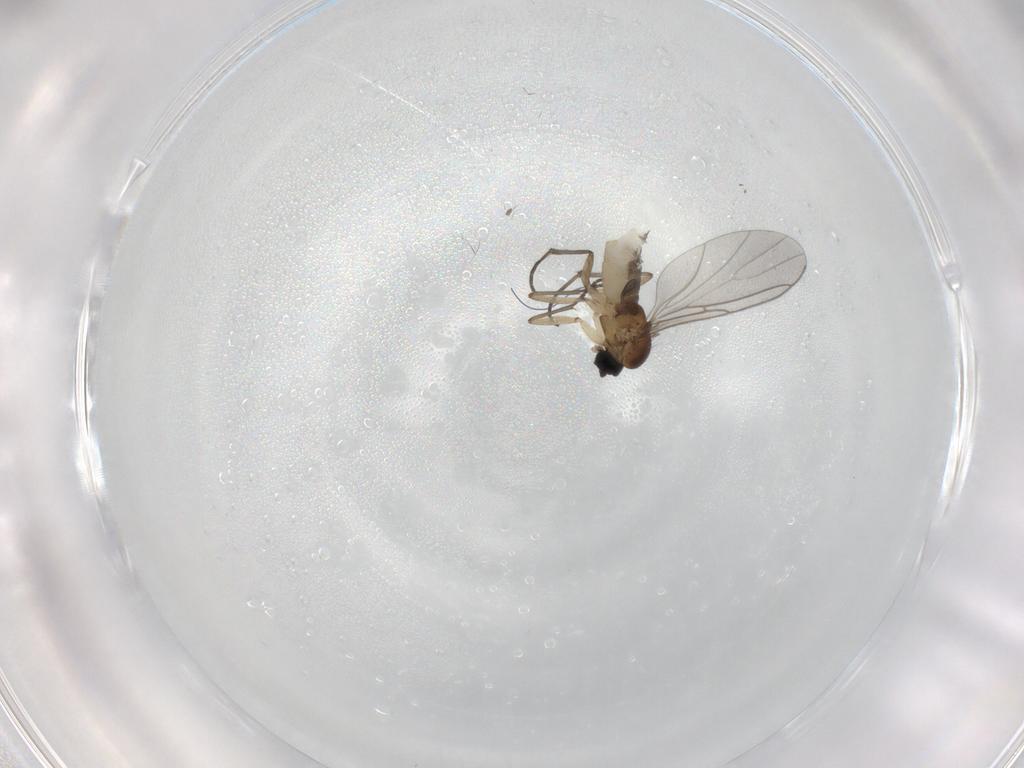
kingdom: Animalia
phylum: Arthropoda
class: Insecta
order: Diptera
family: Sciaridae
